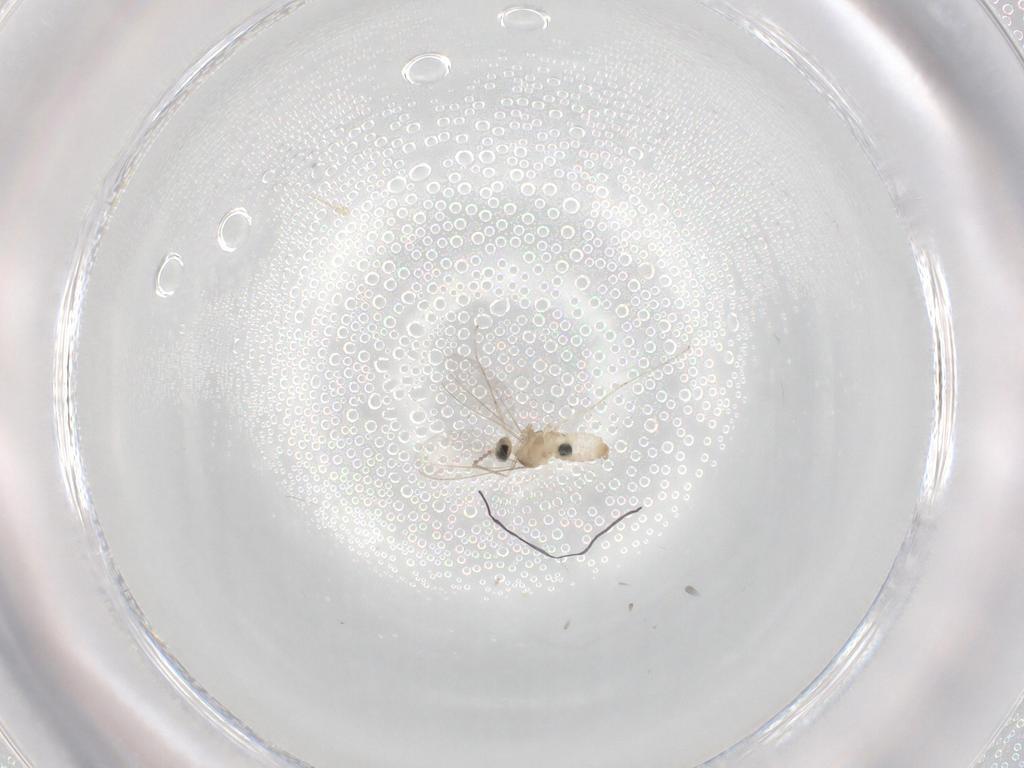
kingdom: Animalia
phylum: Arthropoda
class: Insecta
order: Diptera
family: Cecidomyiidae
